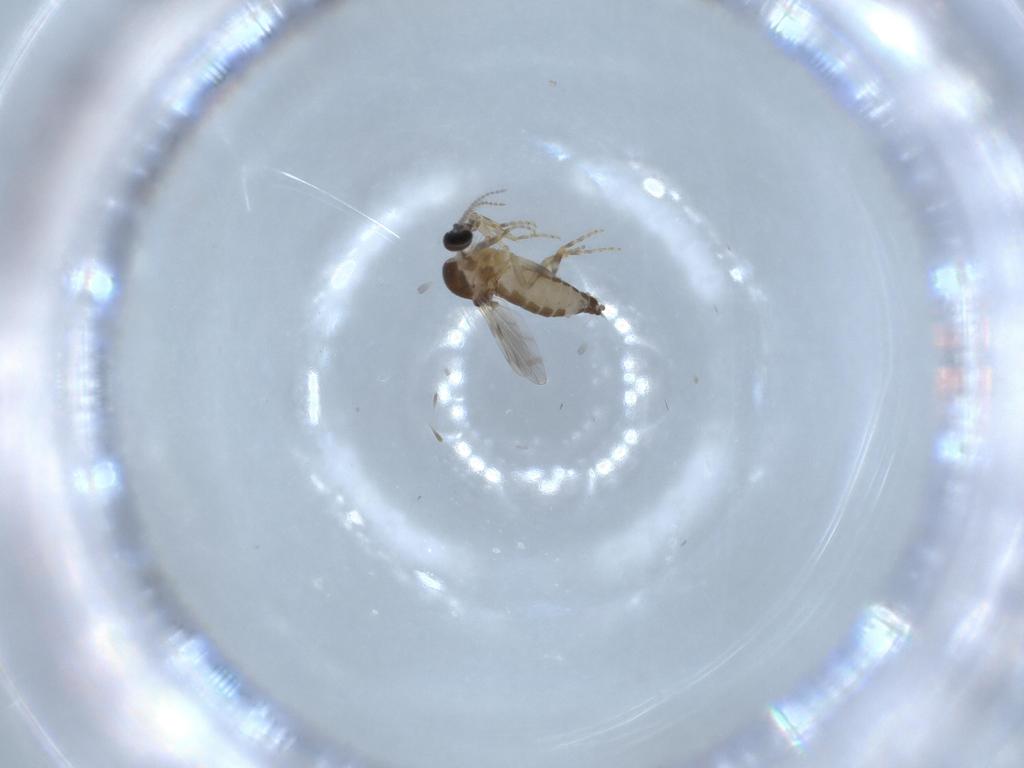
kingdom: Animalia
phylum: Arthropoda
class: Insecta
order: Diptera
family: Ceratopogonidae
